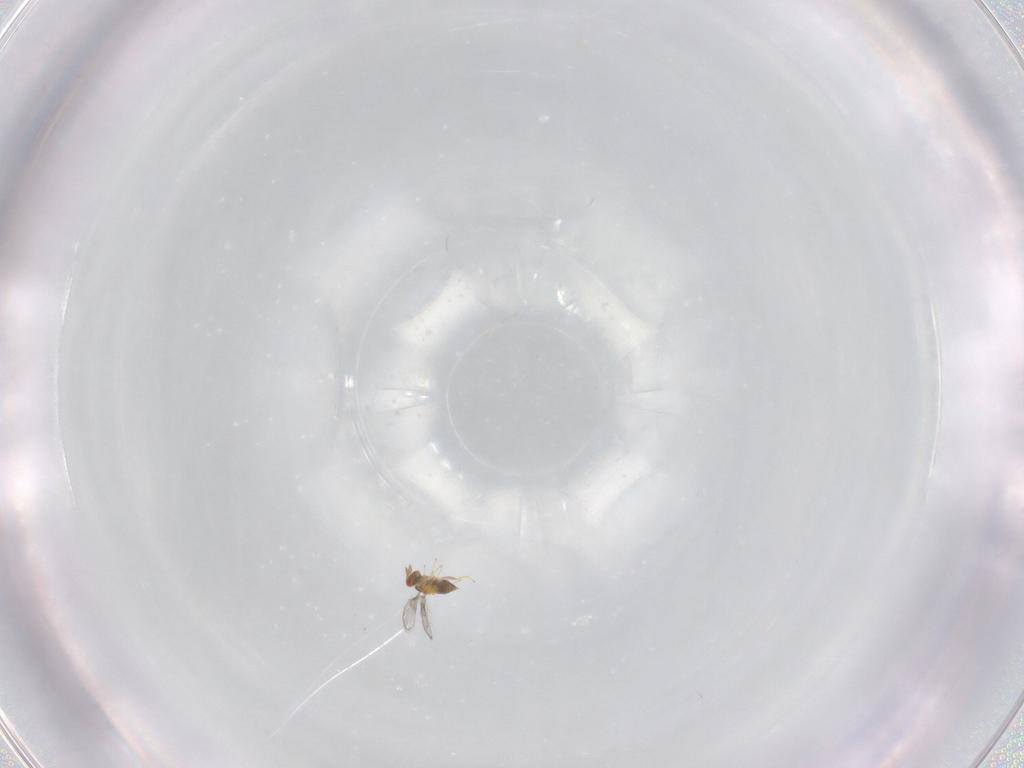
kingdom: Animalia
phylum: Arthropoda
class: Insecta
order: Hymenoptera
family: Trichogrammatidae
